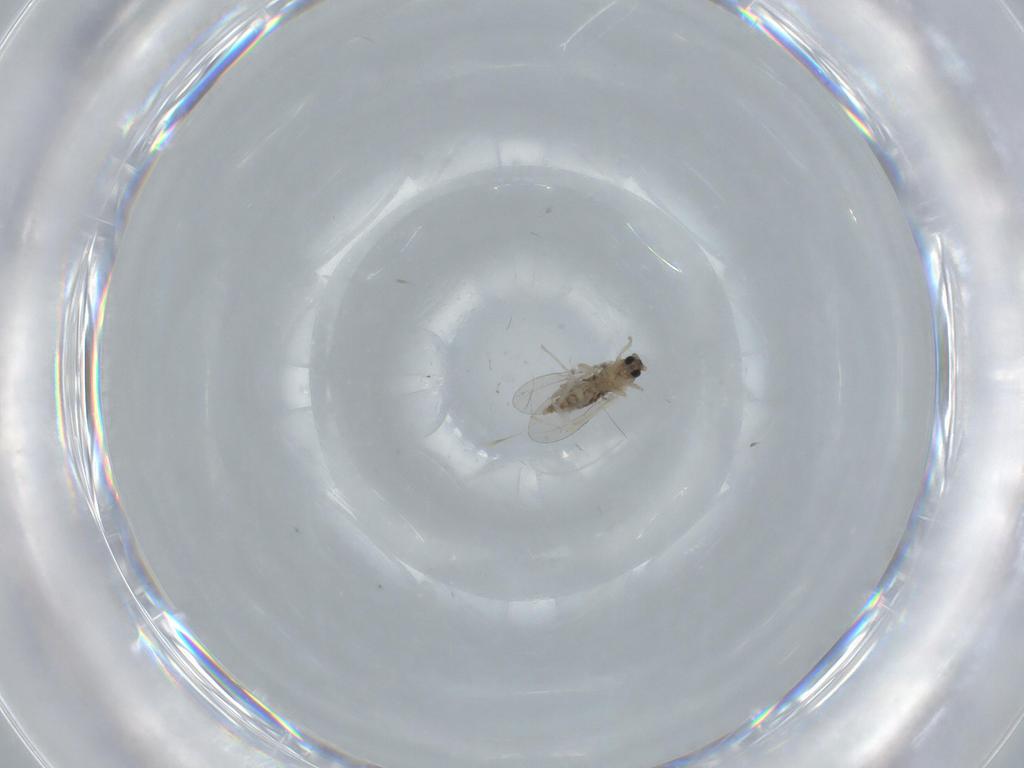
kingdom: Animalia
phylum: Arthropoda
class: Insecta
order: Diptera
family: Cecidomyiidae
